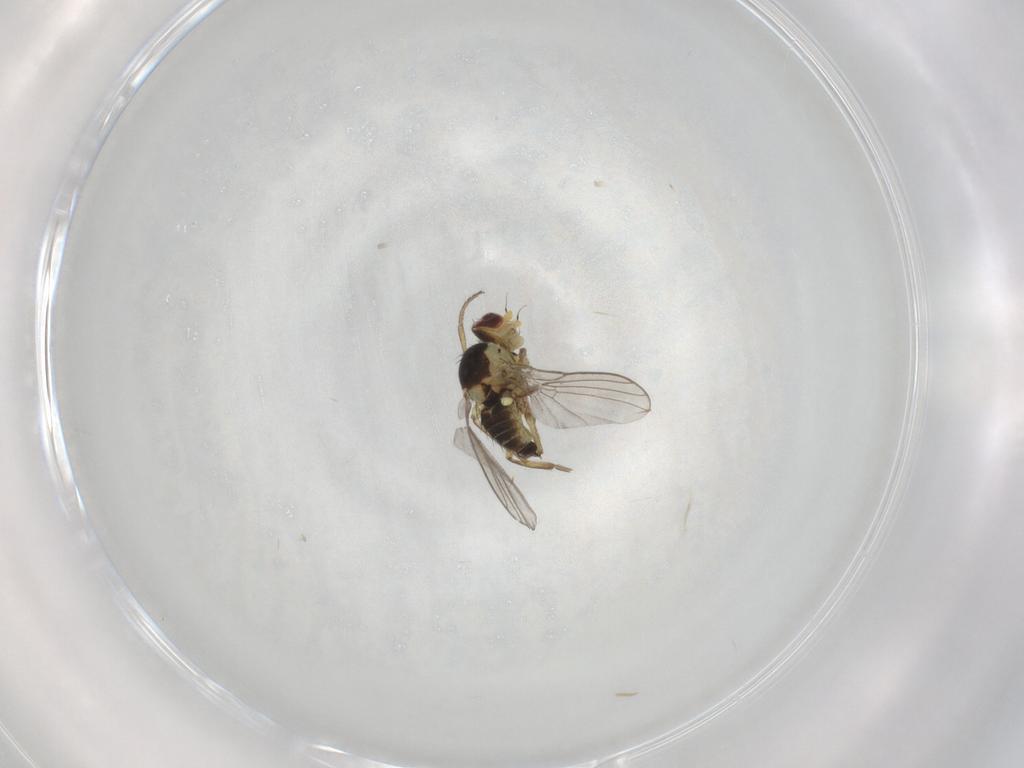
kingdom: Animalia
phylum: Arthropoda
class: Insecta
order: Diptera
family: Agromyzidae
